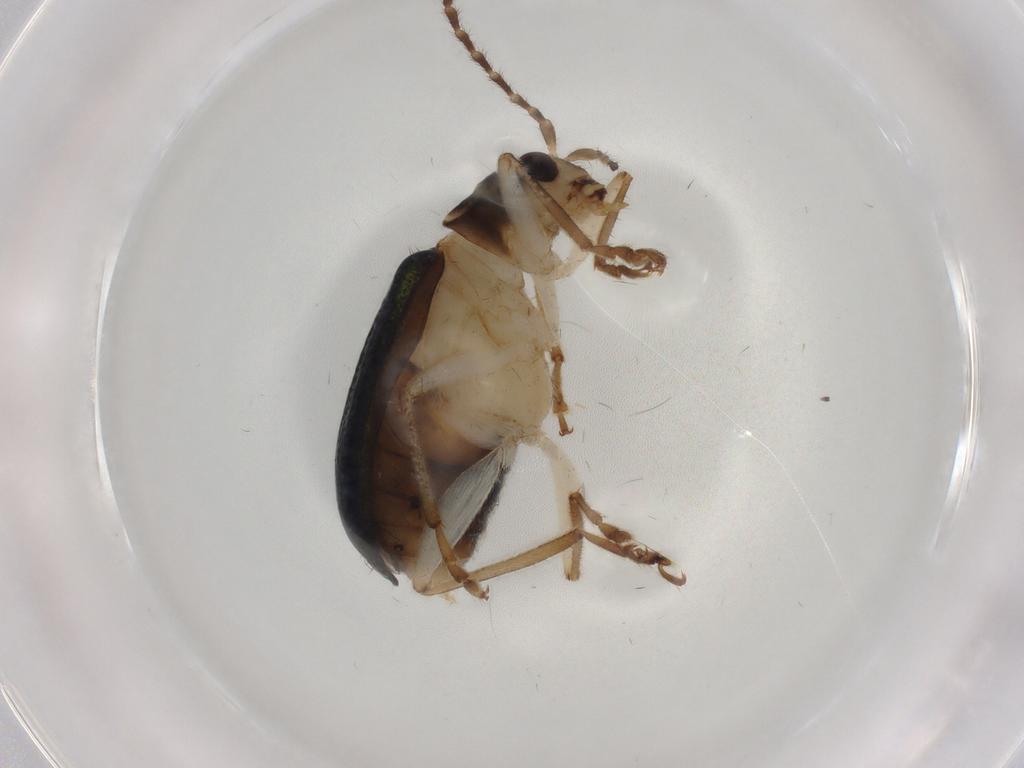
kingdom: Animalia
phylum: Arthropoda
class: Insecta
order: Coleoptera
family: Chrysomelidae
